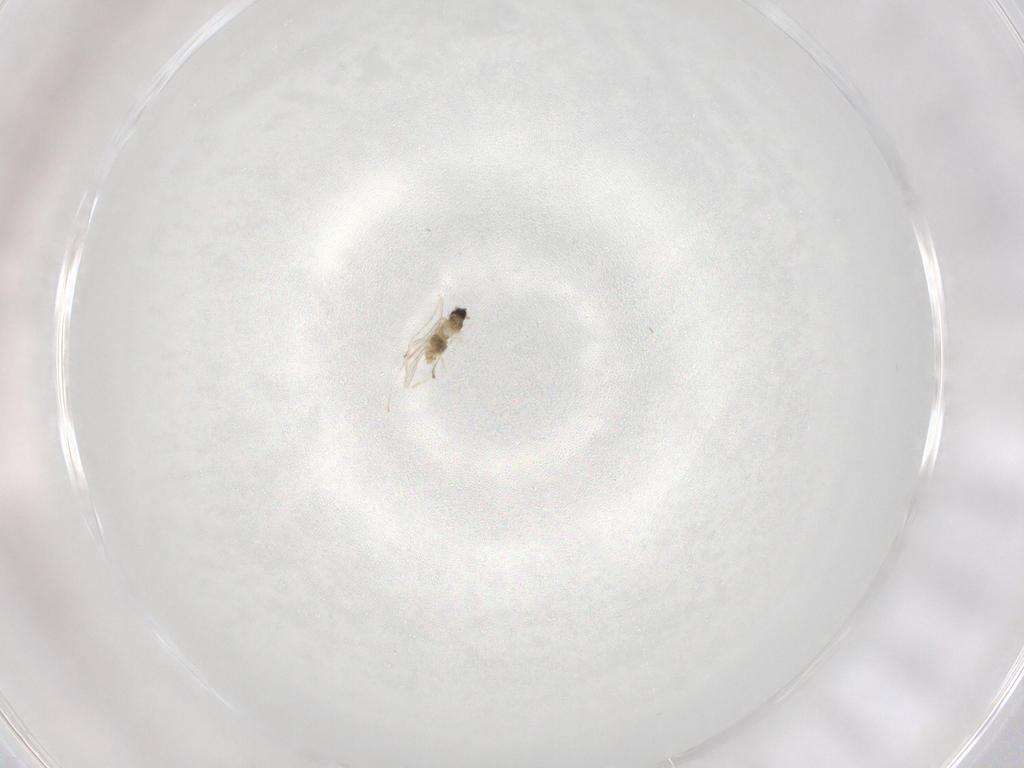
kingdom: Animalia
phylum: Arthropoda
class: Insecta
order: Diptera
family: Cecidomyiidae
